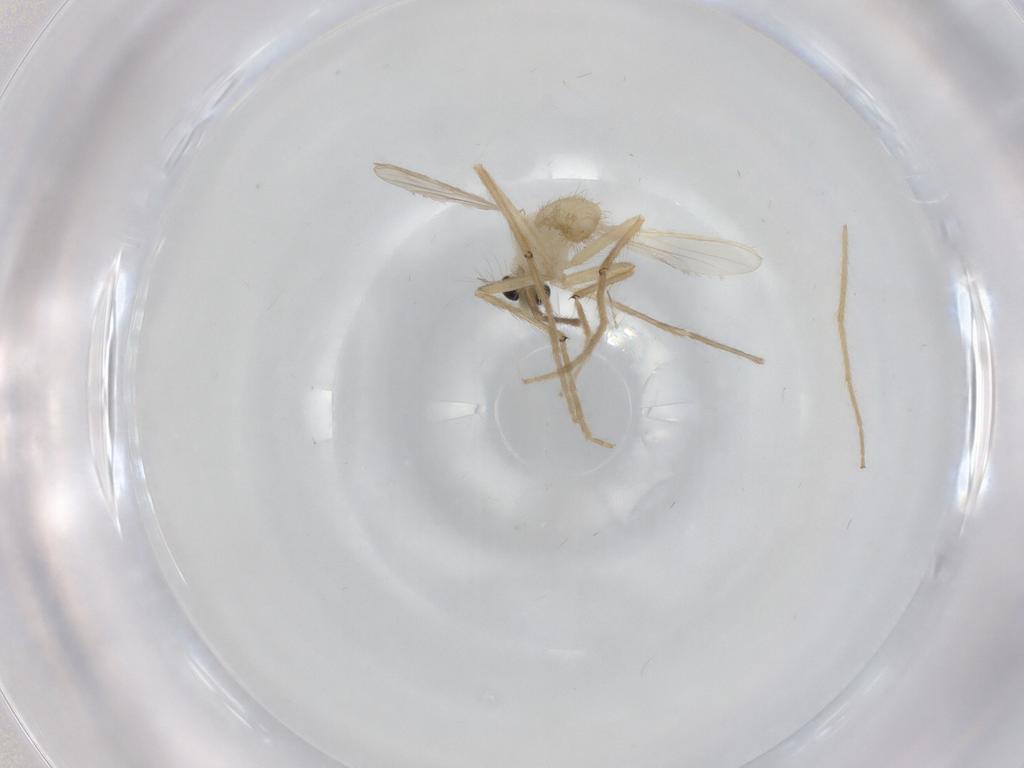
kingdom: Animalia
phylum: Arthropoda
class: Insecta
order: Diptera
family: Chironomidae
